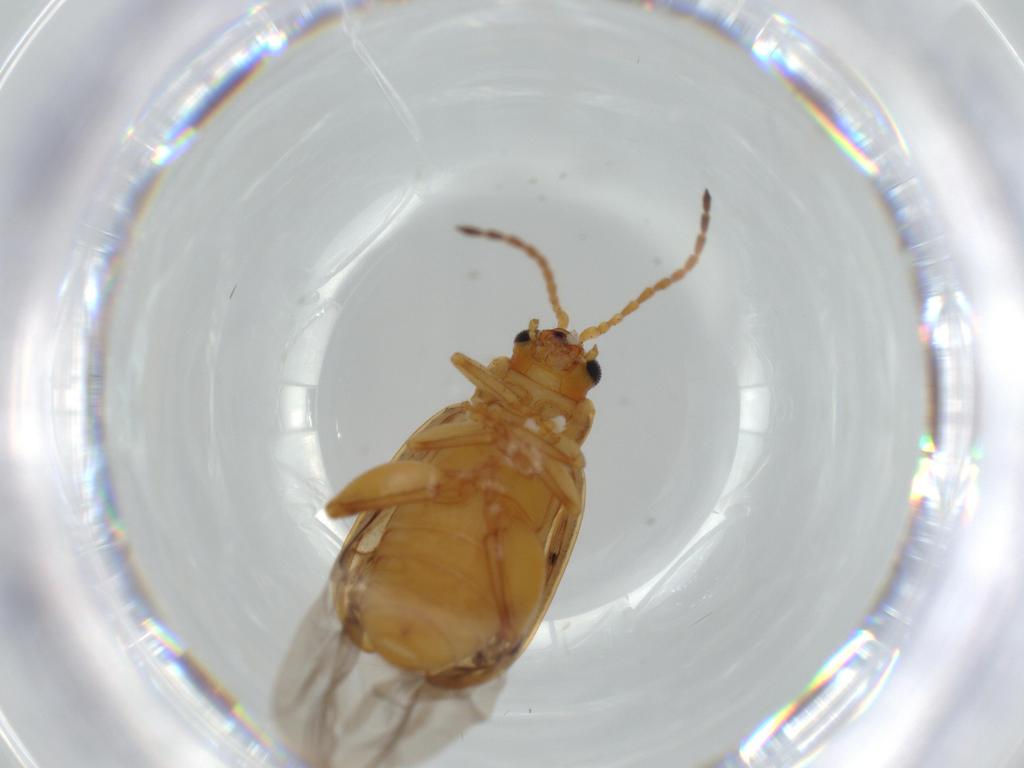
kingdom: Animalia
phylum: Arthropoda
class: Insecta
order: Coleoptera
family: Chrysomelidae
